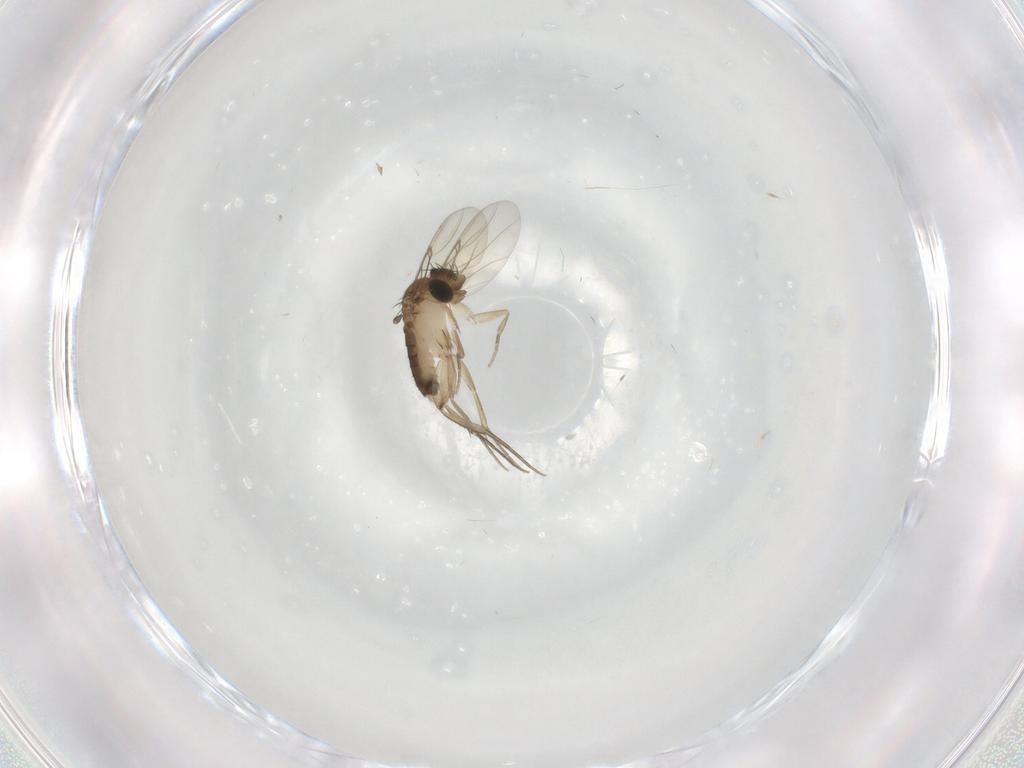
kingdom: Animalia
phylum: Arthropoda
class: Insecta
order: Diptera
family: Phoridae
